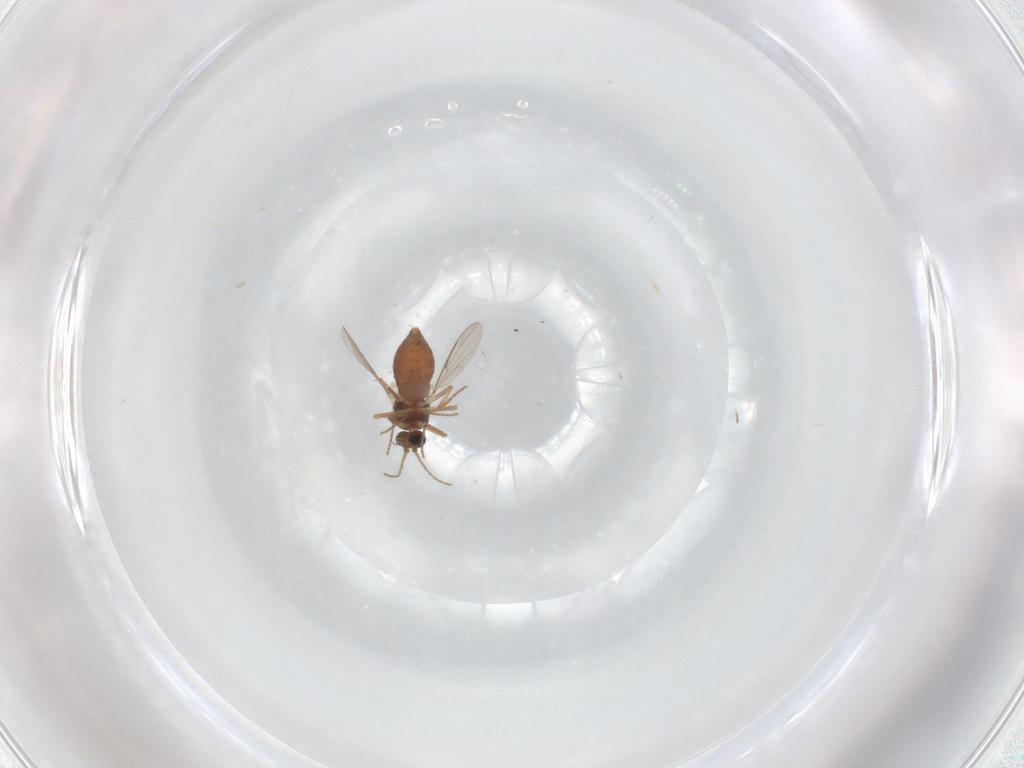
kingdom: Animalia
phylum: Arthropoda
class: Insecta
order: Diptera
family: Ceratopogonidae
